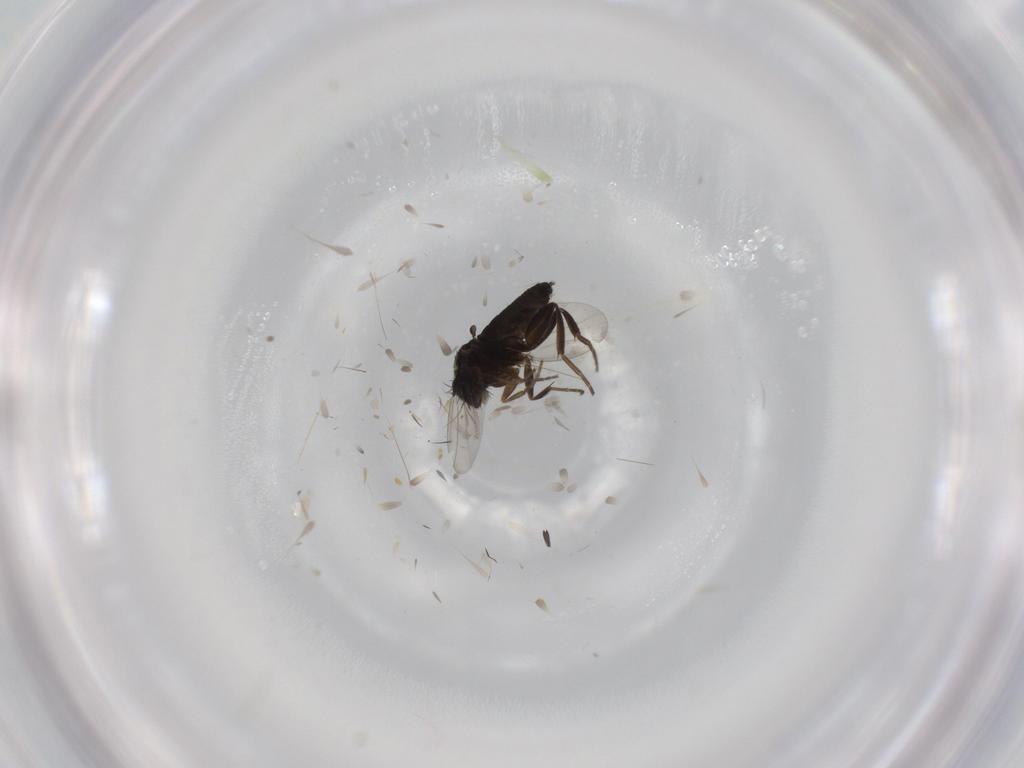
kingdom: Animalia
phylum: Arthropoda
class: Insecta
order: Diptera
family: Phoridae
